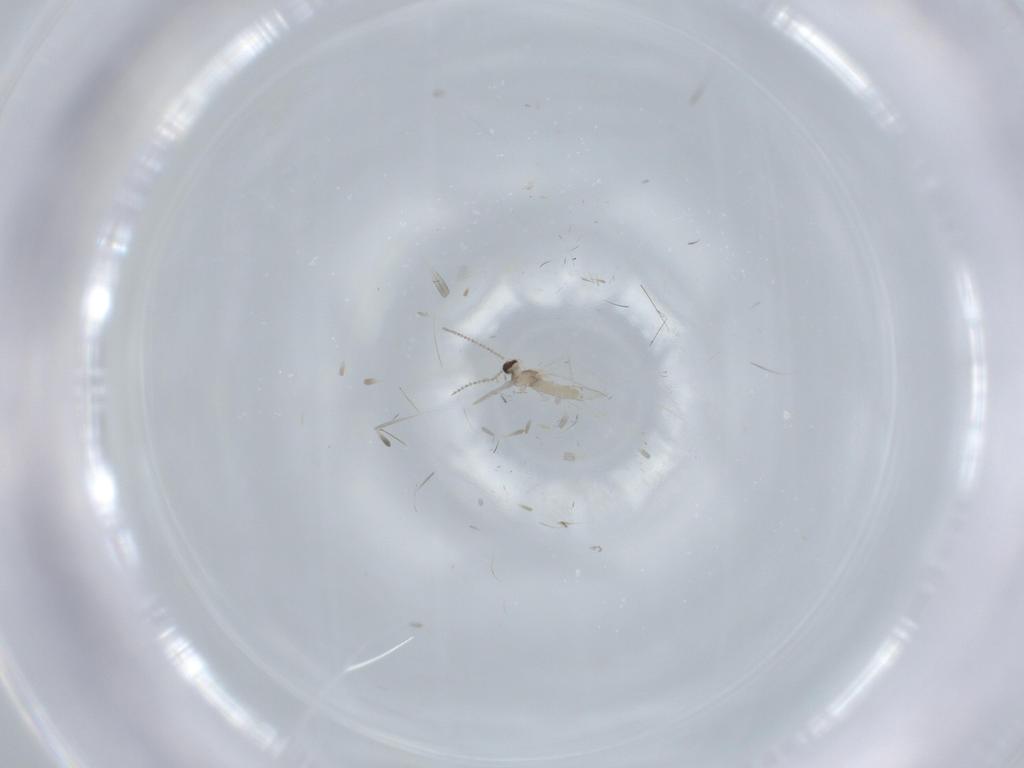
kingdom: Animalia
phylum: Arthropoda
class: Insecta
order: Diptera
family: Cecidomyiidae
